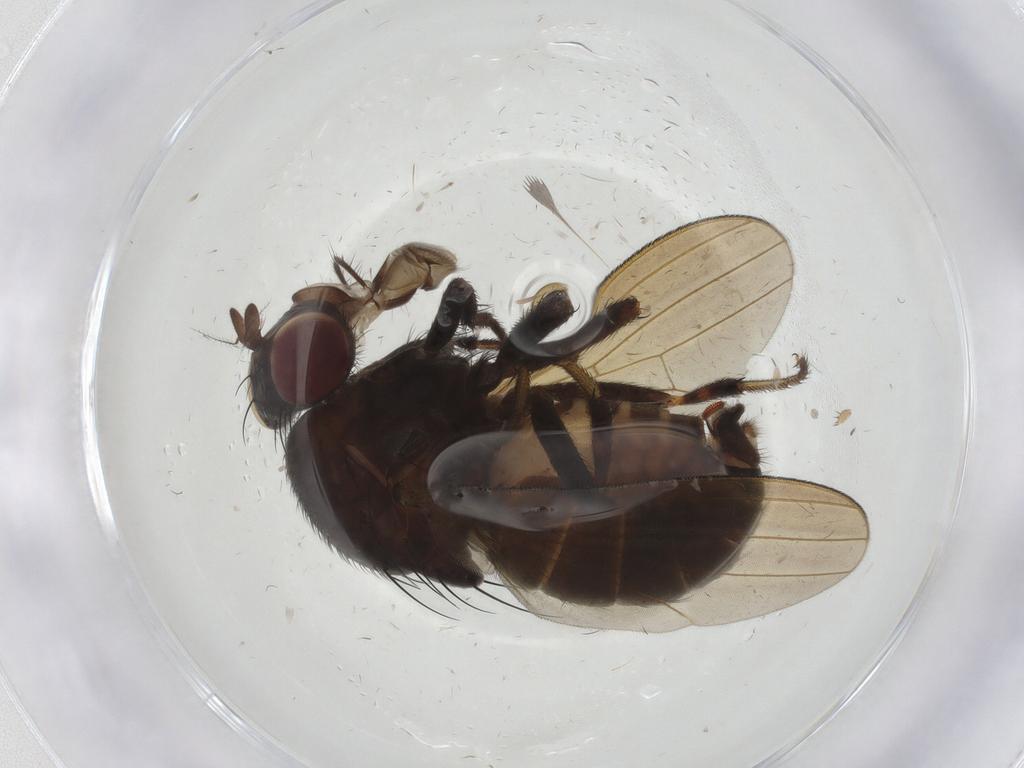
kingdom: Animalia
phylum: Arthropoda
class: Insecta
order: Diptera
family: Lauxaniidae
